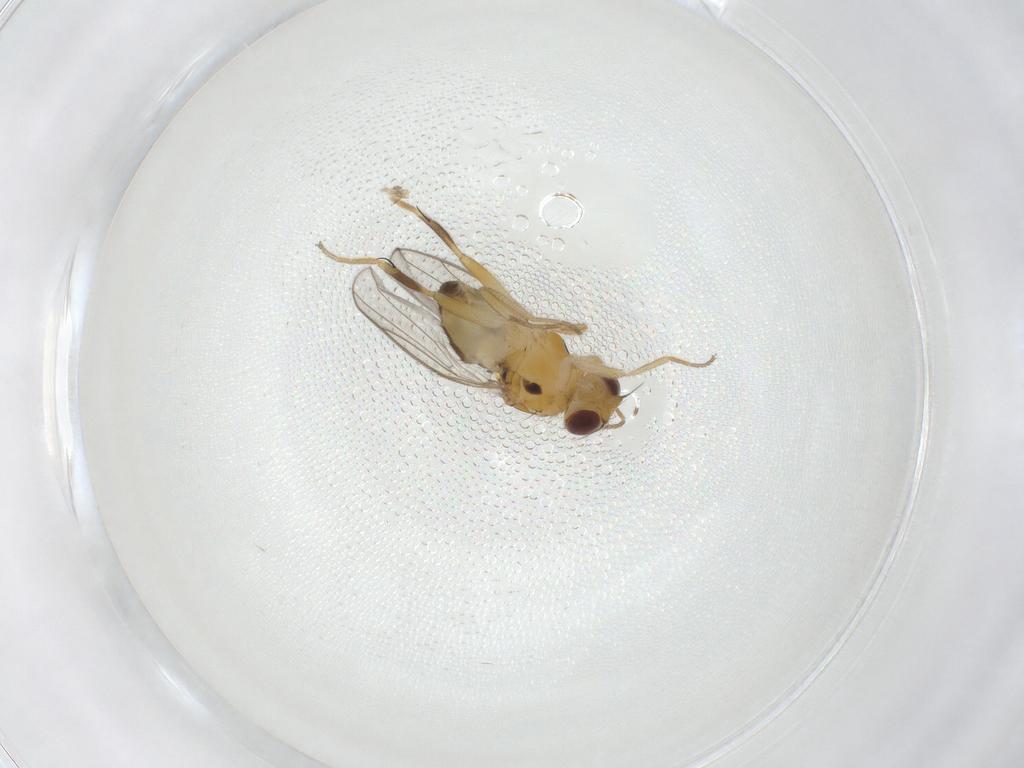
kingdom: Animalia
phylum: Arthropoda
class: Insecta
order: Diptera
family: Chloropidae
